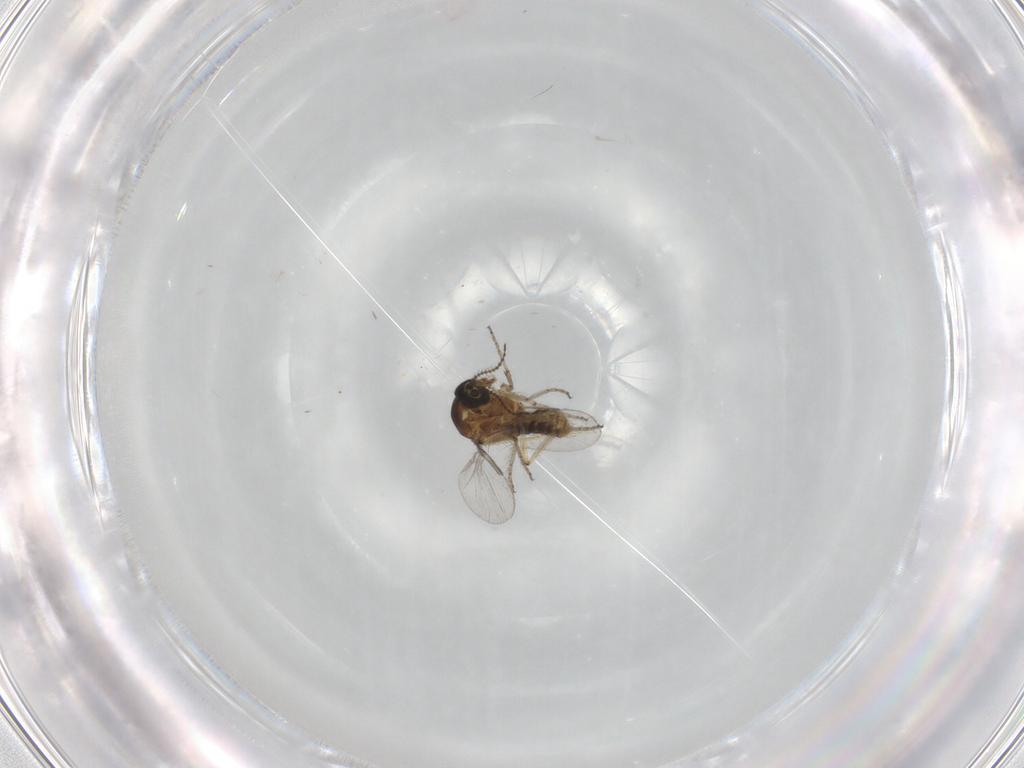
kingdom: Animalia
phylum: Arthropoda
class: Insecta
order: Diptera
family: Ceratopogonidae
